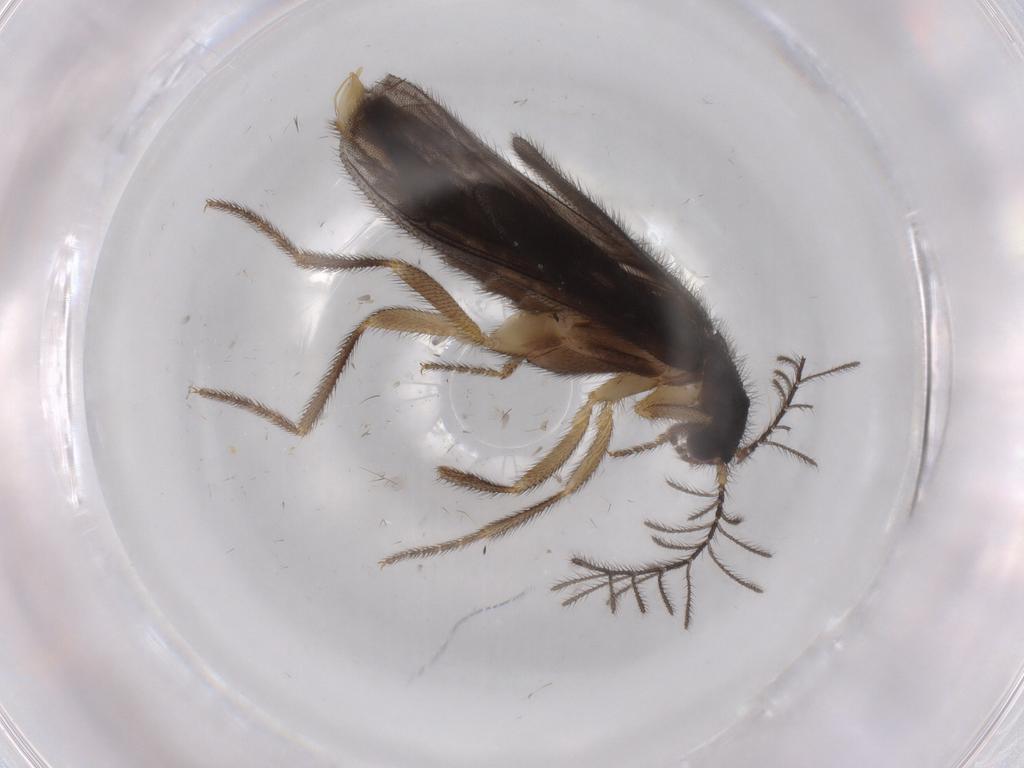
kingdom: Animalia
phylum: Arthropoda
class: Insecta
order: Coleoptera
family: Chrysomelidae
